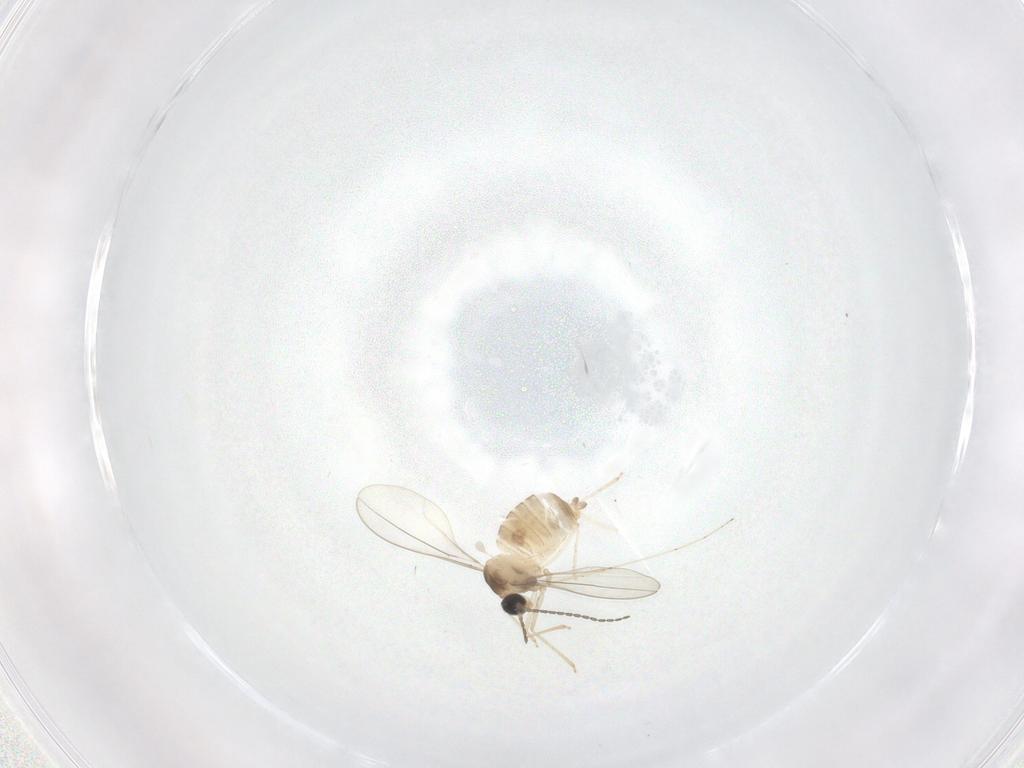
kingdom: Animalia
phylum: Arthropoda
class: Insecta
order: Diptera
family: Cecidomyiidae
